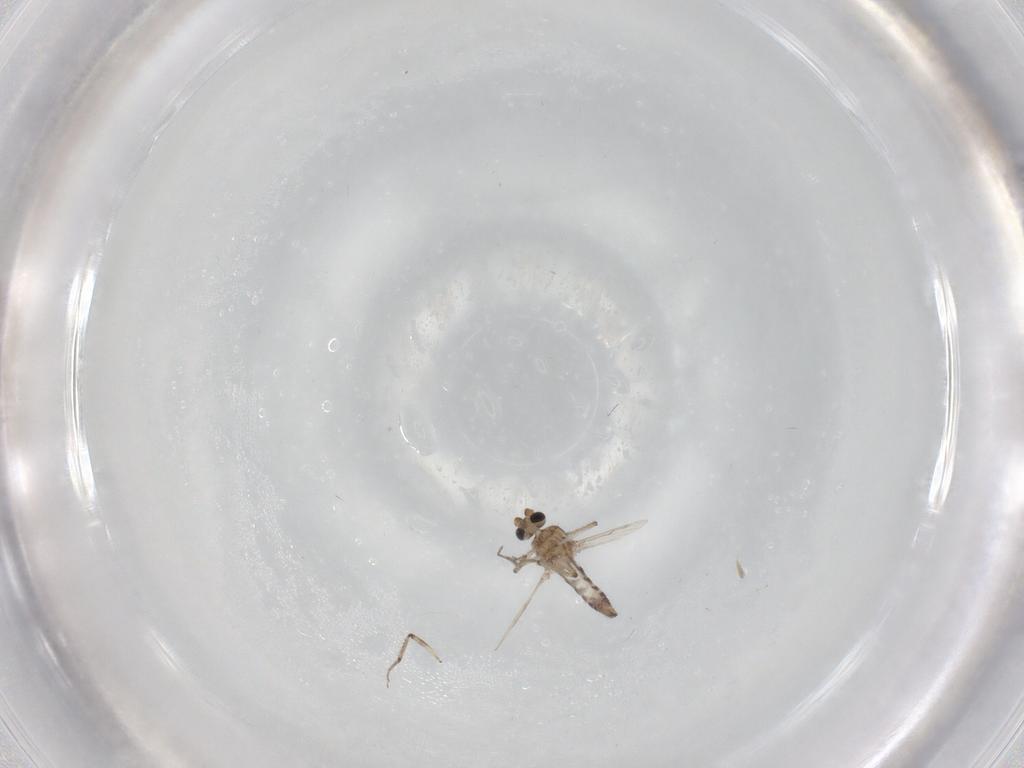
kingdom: Animalia
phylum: Arthropoda
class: Insecta
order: Diptera
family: Ceratopogonidae
